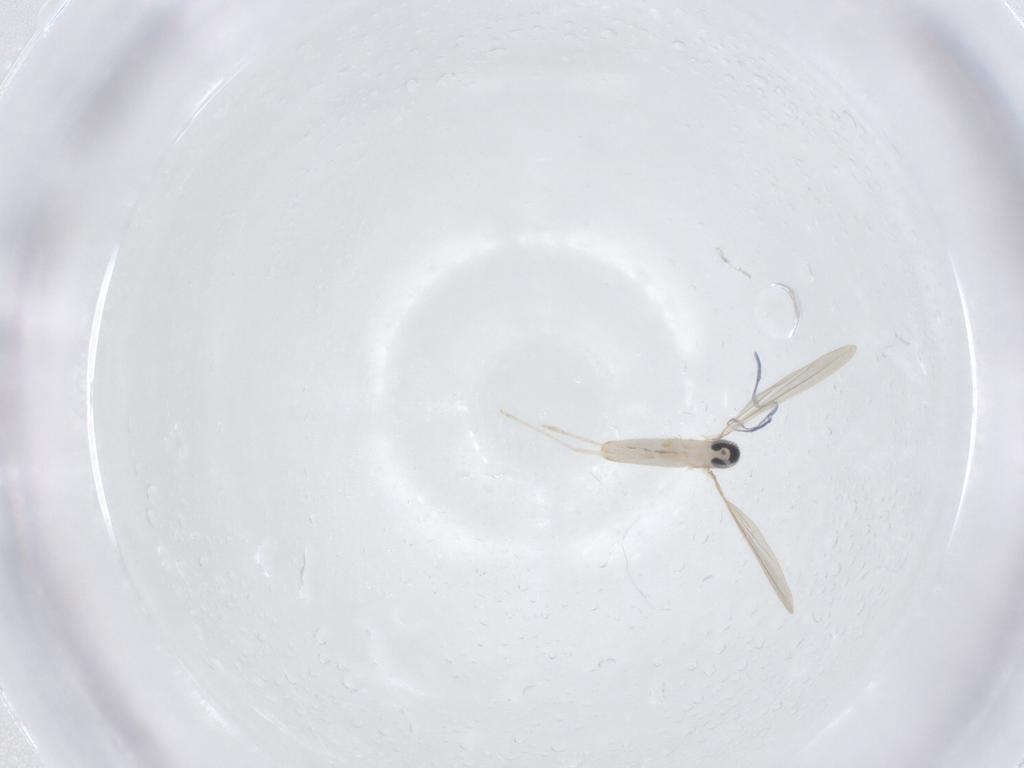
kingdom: Animalia
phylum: Arthropoda
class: Insecta
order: Diptera
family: Cecidomyiidae
